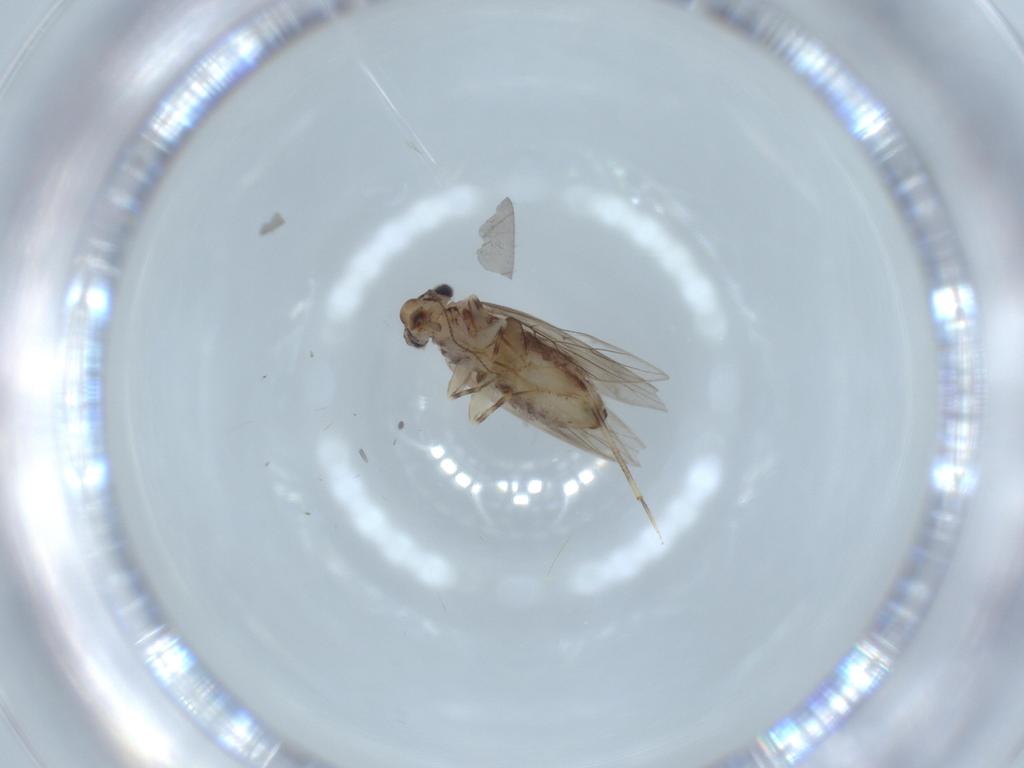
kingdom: Animalia
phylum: Arthropoda
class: Insecta
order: Psocodea
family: Lepidopsocidae
